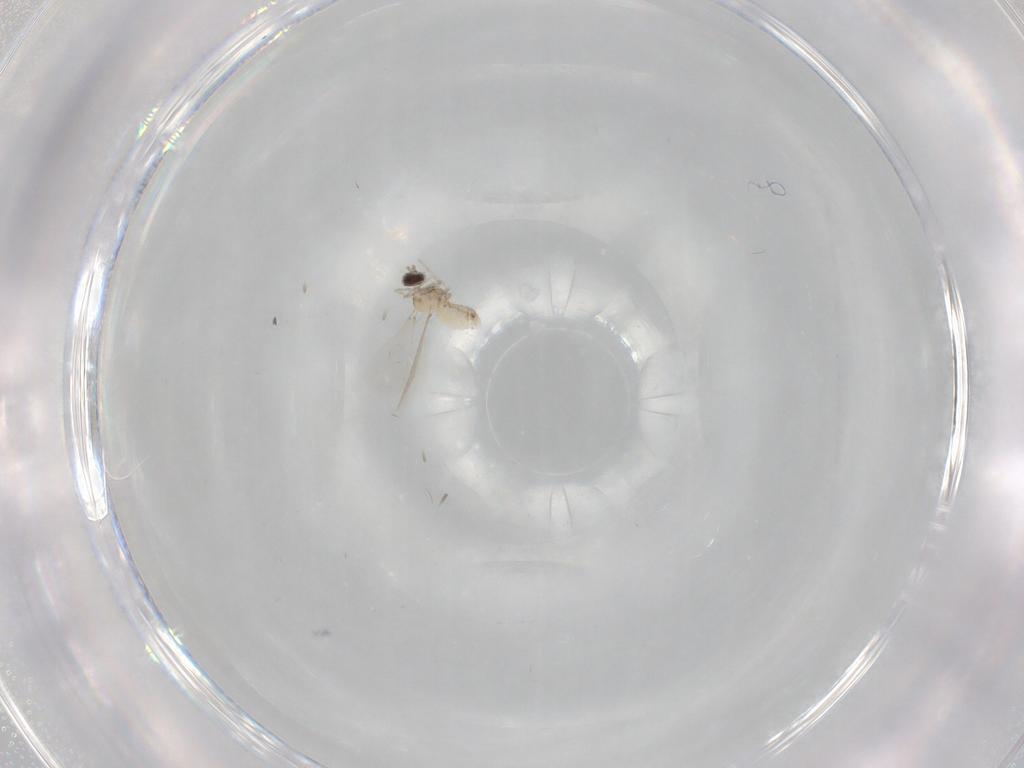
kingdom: Animalia
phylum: Arthropoda
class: Insecta
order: Diptera
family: Cecidomyiidae
